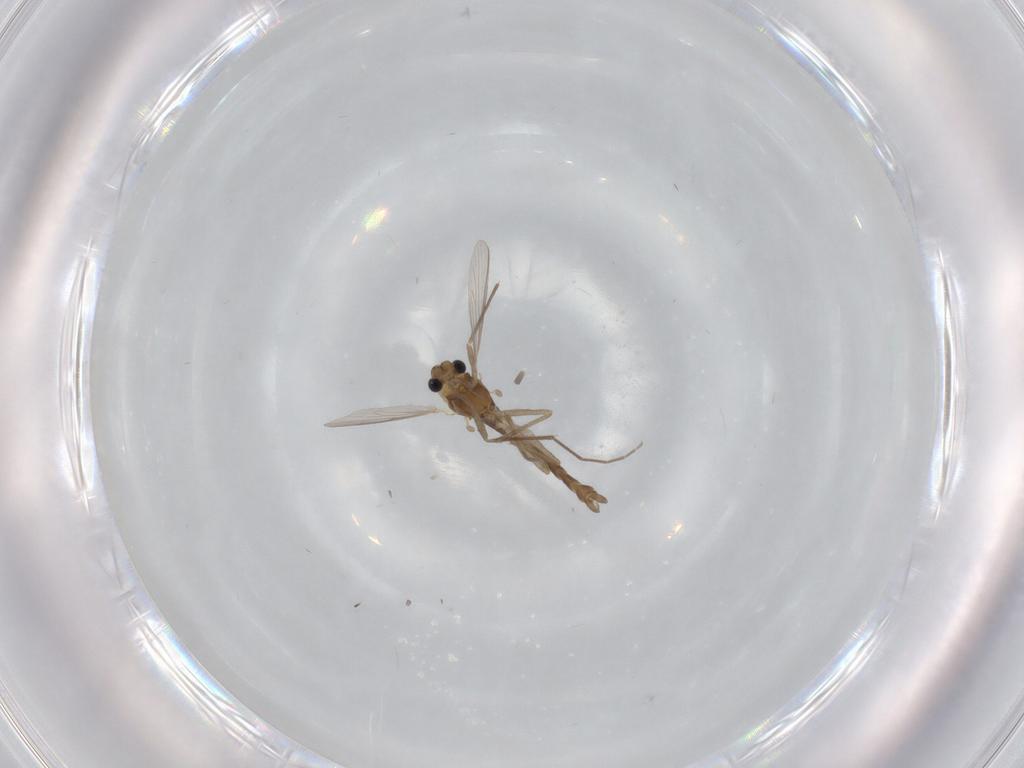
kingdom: Animalia
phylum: Arthropoda
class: Insecta
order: Diptera
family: Chironomidae
